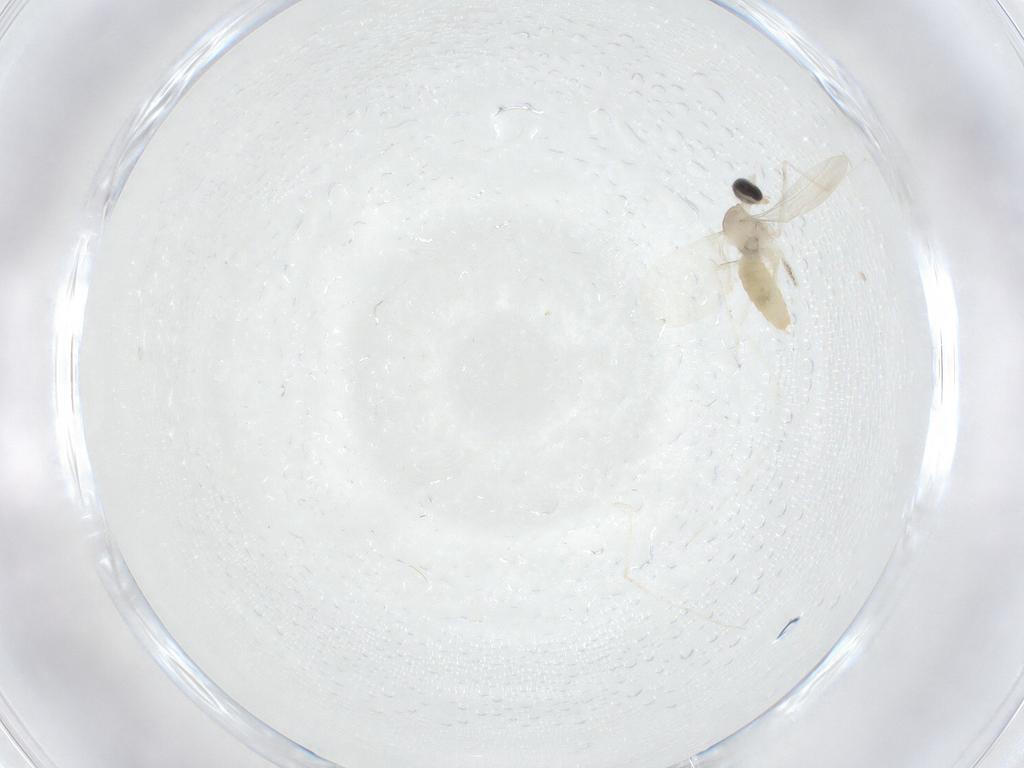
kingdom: Animalia
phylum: Arthropoda
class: Insecta
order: Diptera
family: Cecidomyiidae
